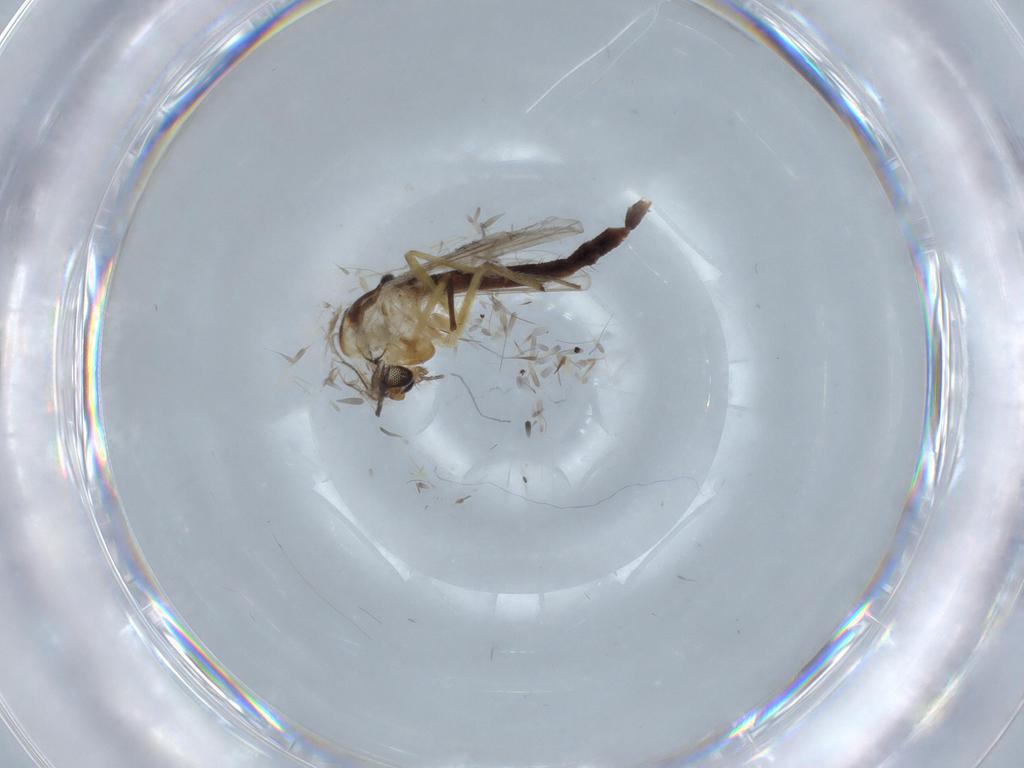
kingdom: Animalia
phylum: Arthropoda
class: Insecta
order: Diptera
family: Chironomidae
